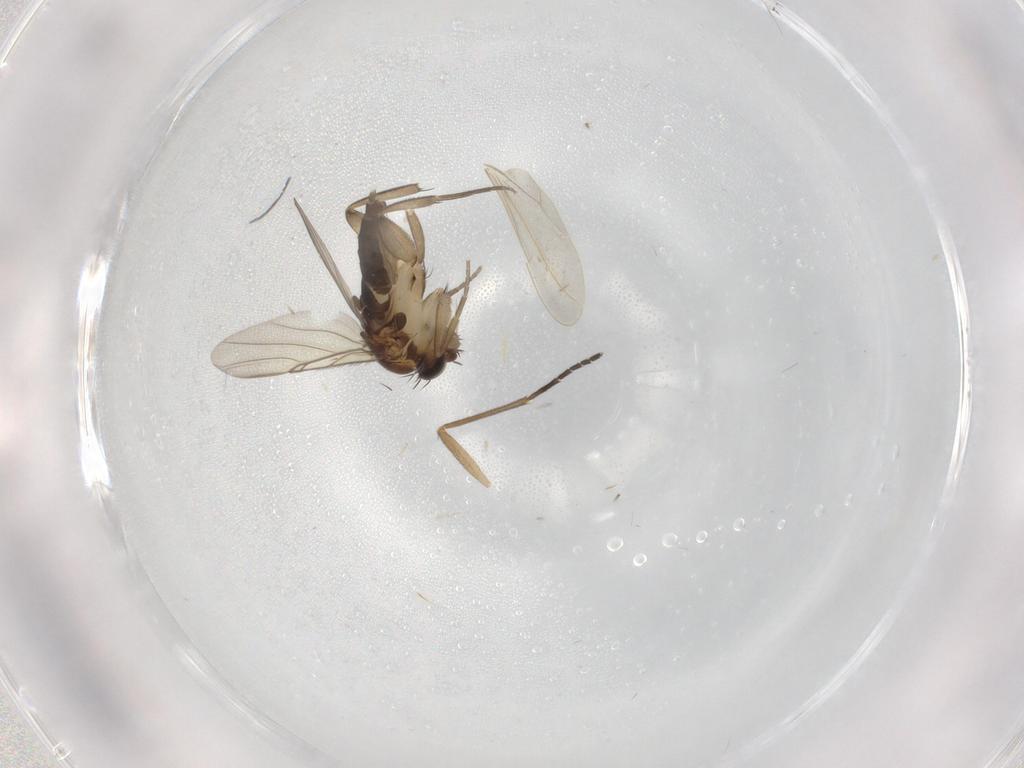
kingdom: Animalia
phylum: Arthropoda
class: Insecta
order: Diptera
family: Phoridae
